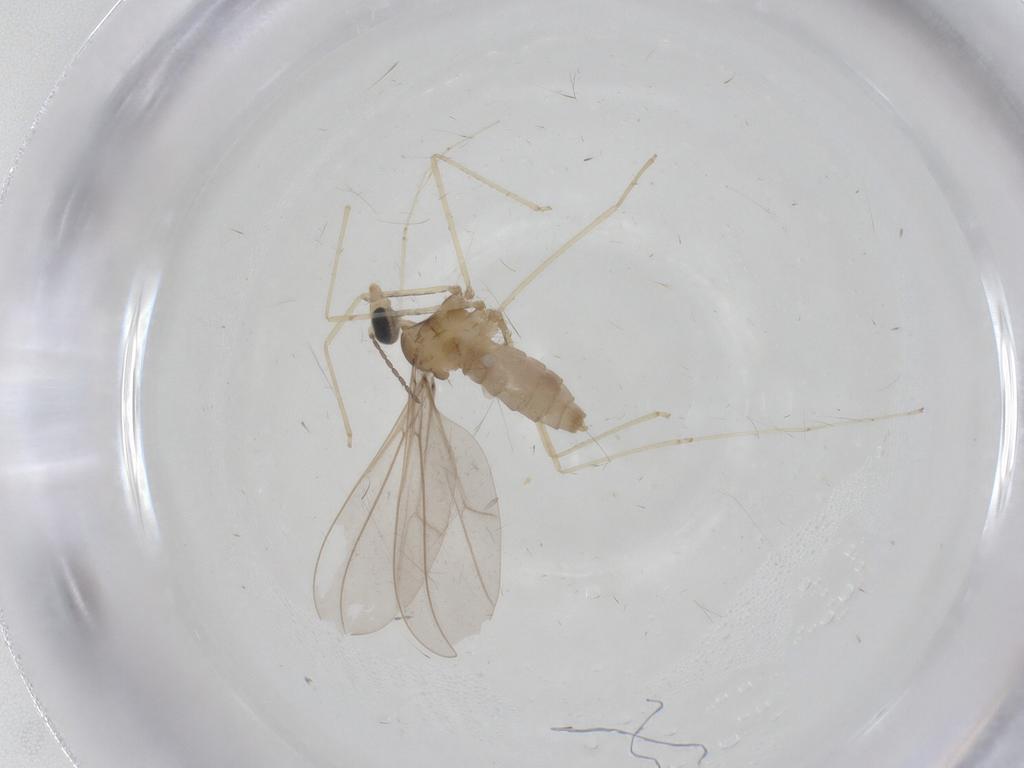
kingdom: Animalia
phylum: Arthropoda
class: Insecta
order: Diptera
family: Cecidomyiidae
